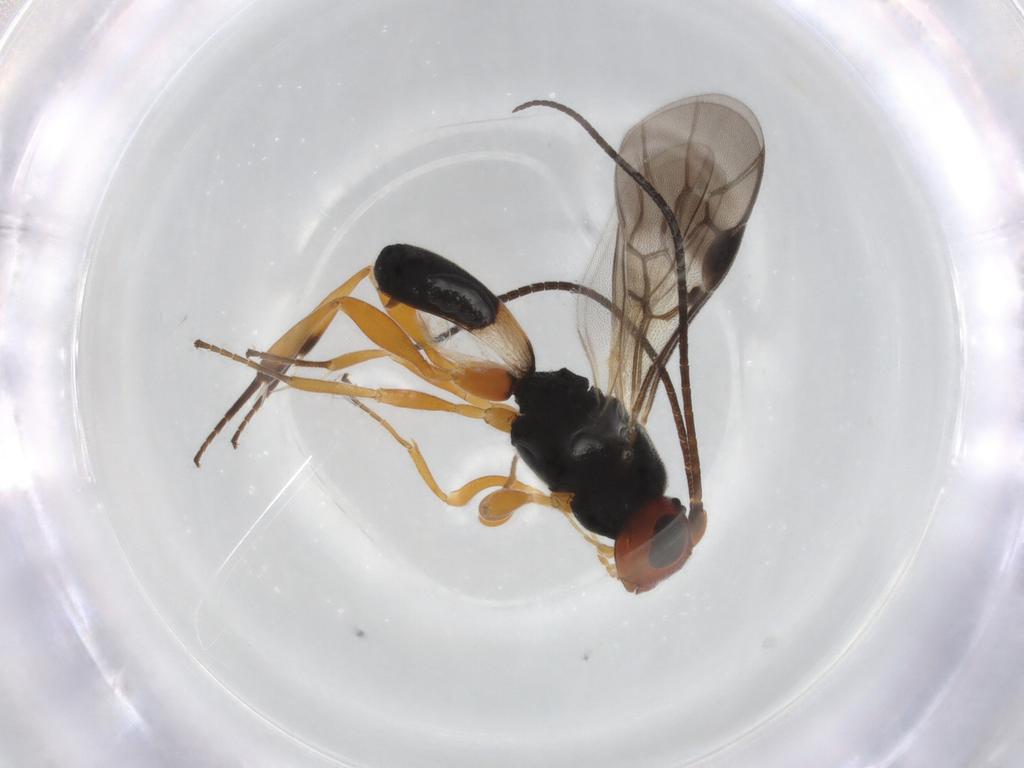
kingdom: Animalia
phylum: Arthropoda
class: Insecta
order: Hymenoptera
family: Braconidae
